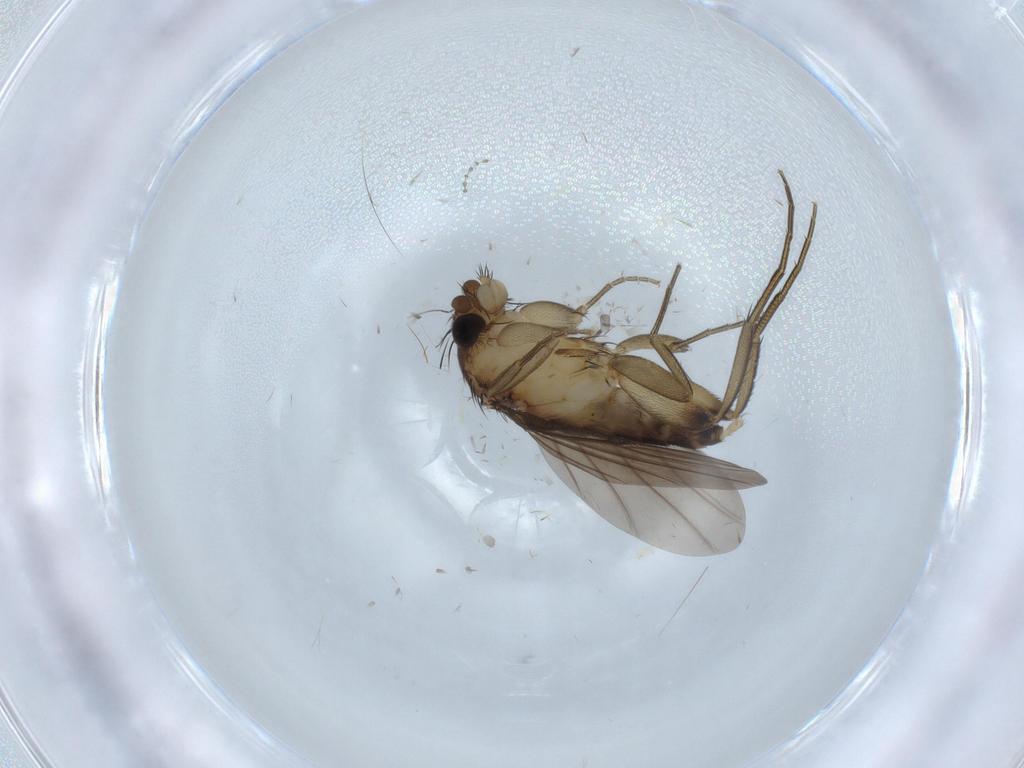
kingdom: Animalia
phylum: Arthropoda
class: Insecta
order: Diptera
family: Phoridae
